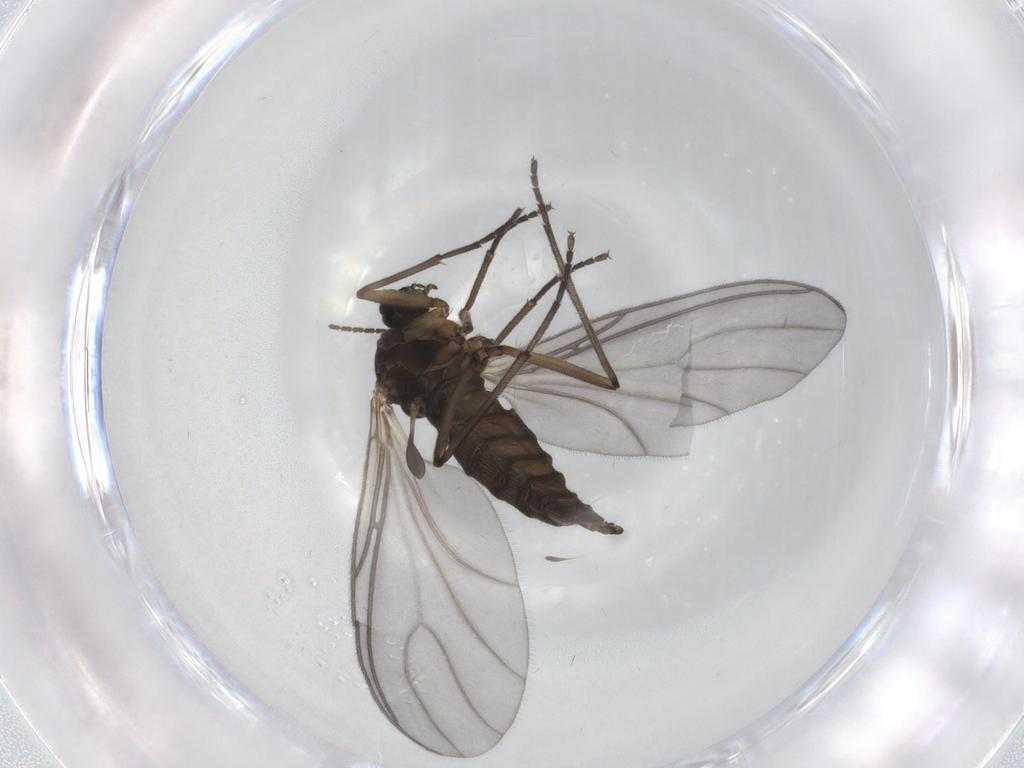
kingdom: Animalia
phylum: Arthropoda
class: Insecta
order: Diptera
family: Sciaridae
